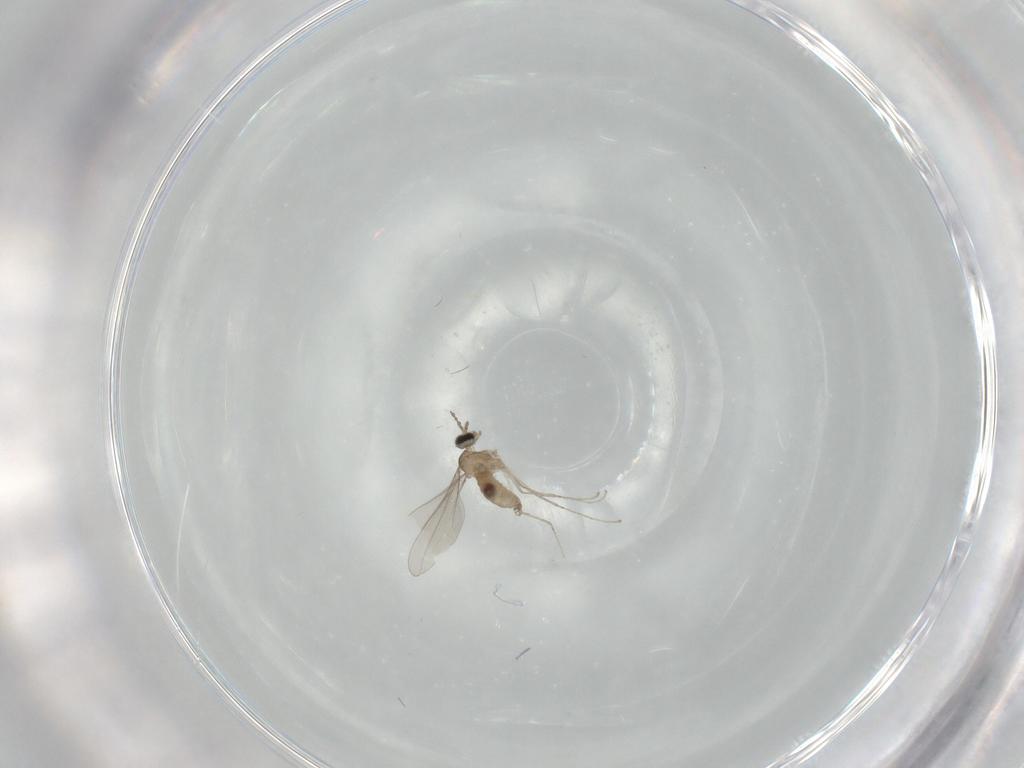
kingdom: Animalia
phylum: Arthropoda
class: Insecta
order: Diptera
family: Cecidomyiidae
